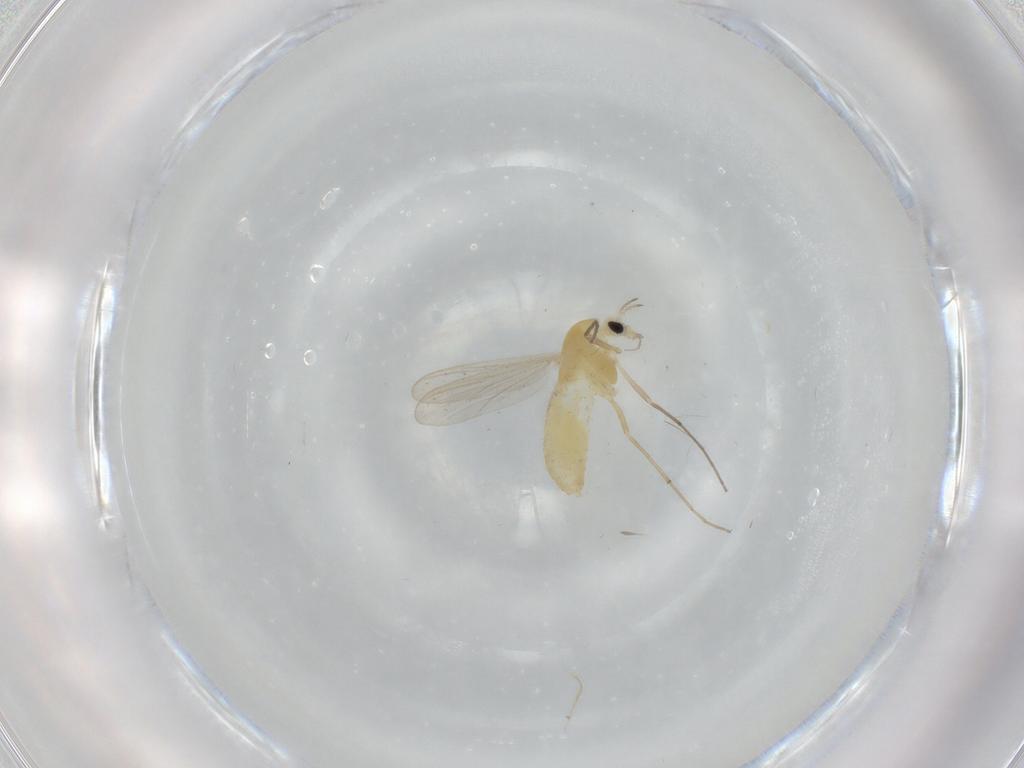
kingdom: Animalia
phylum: Arthropoda
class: Insecta
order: Diptera
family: Chironomidae
